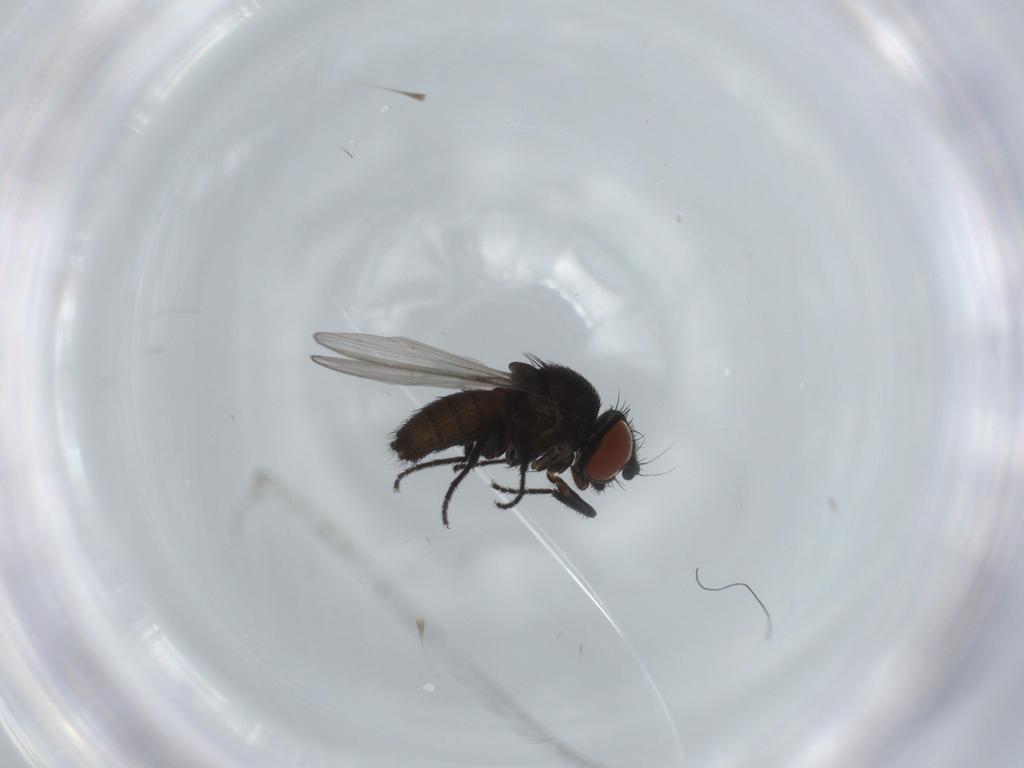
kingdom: Animalia
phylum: Arthropoda
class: Insecta
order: Diptera
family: Milichiidae
